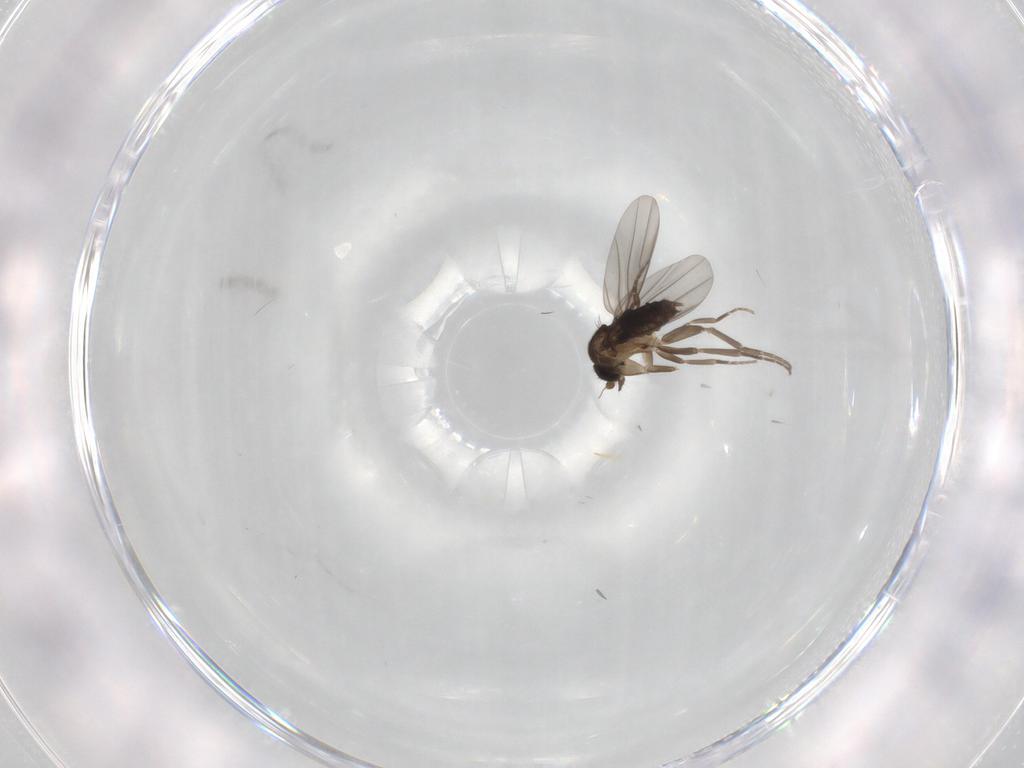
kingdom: Animalia
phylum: Arthropoda
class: Insecta
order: Diptera
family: Phoridae
